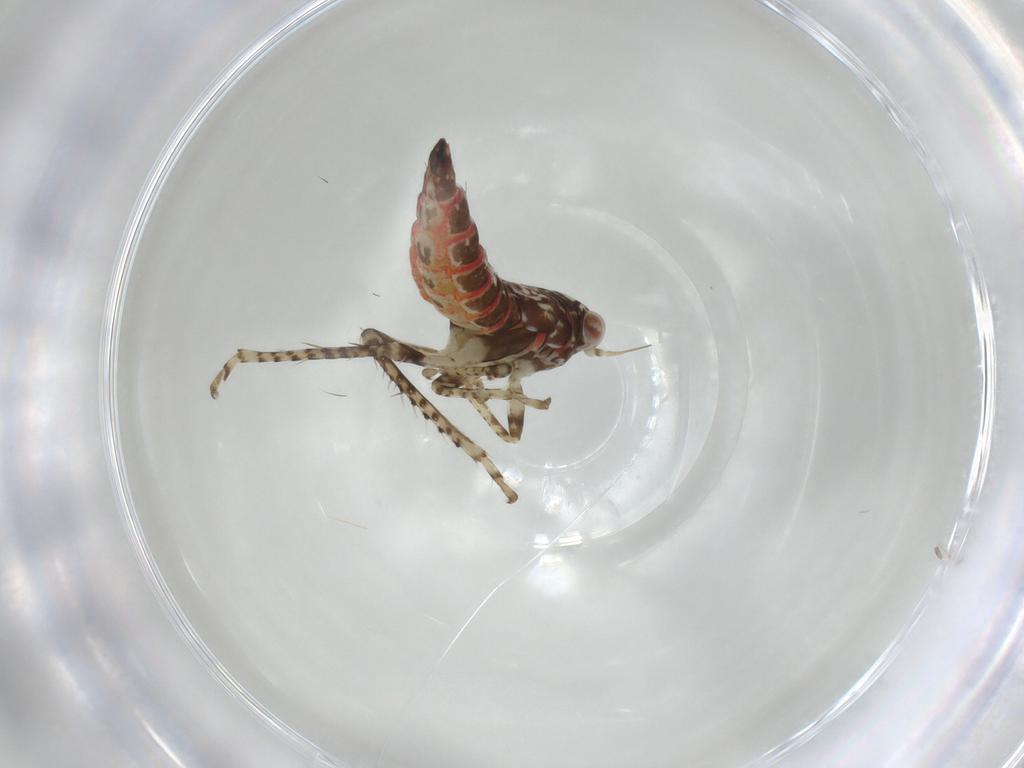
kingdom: Animalia
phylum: Arthropoda
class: Insecta
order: Hemiptera
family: Cicadellidae
